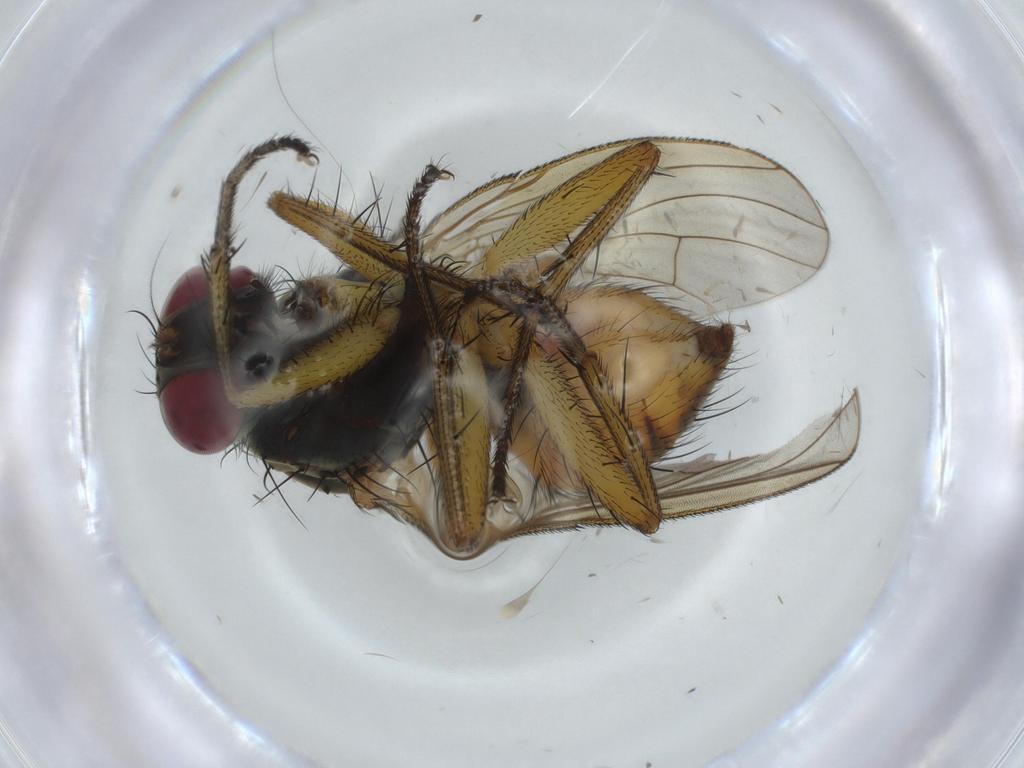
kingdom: Animalia
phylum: Arthropoda
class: Insecta
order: Diptera
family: Muscidae
